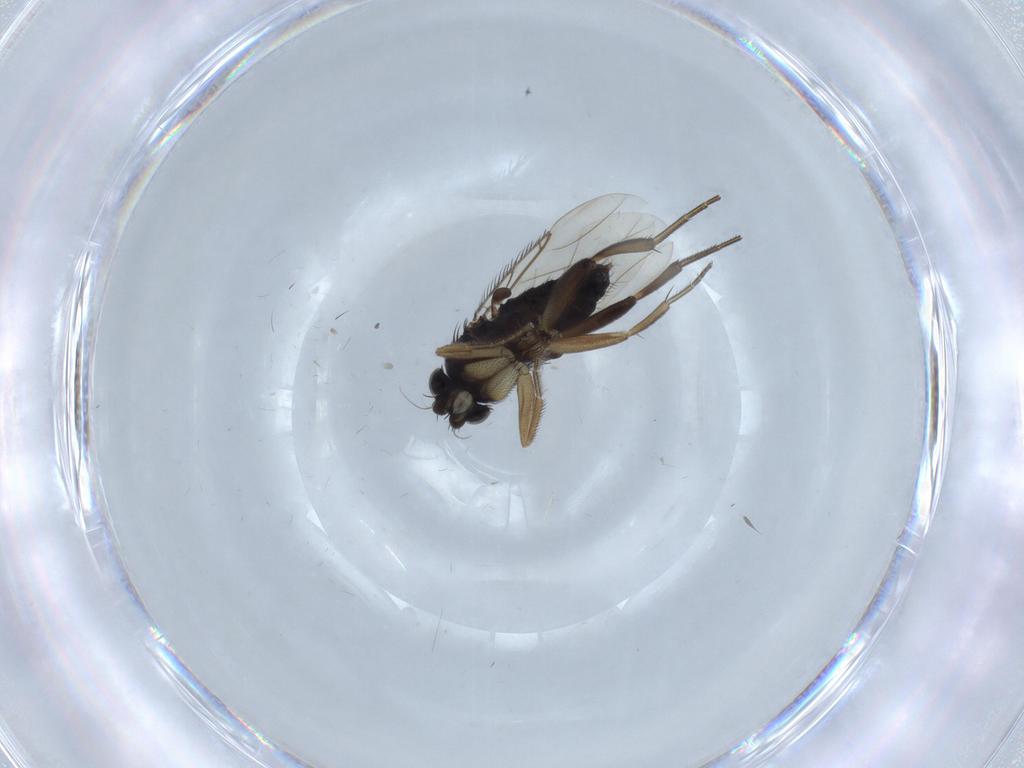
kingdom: Animalia
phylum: Arthropoda
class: Insecta
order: Diptera
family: Phoridae
